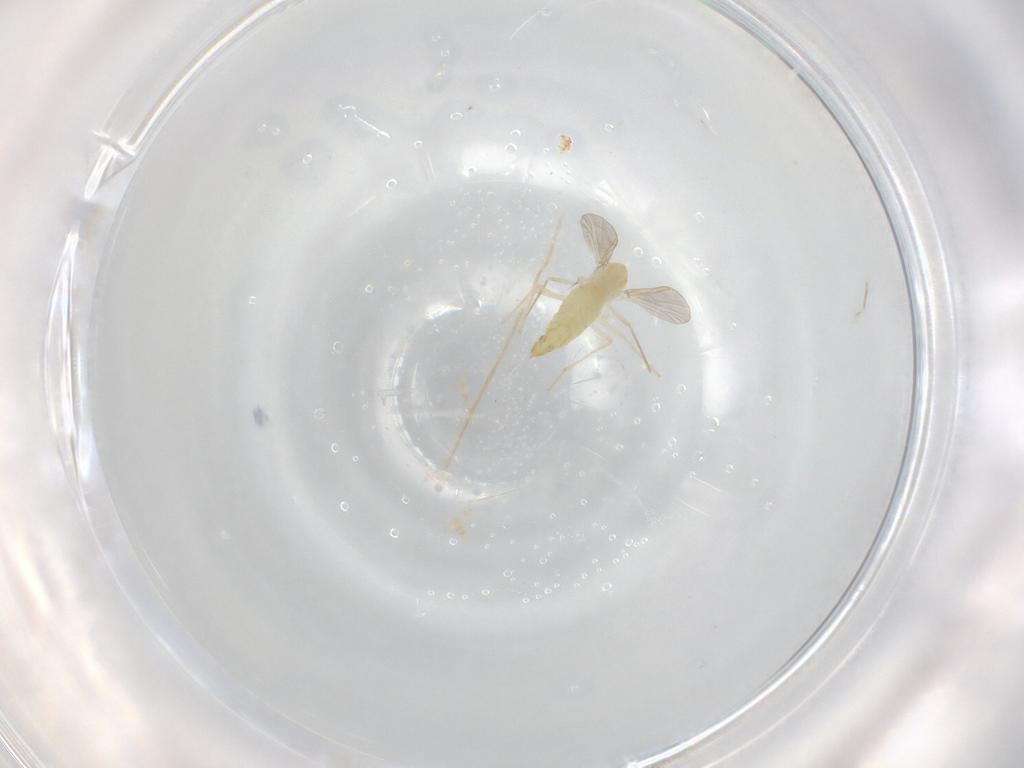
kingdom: Animalia
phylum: Arthropoda
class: Insecta
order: Diptera
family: Chironomidae
